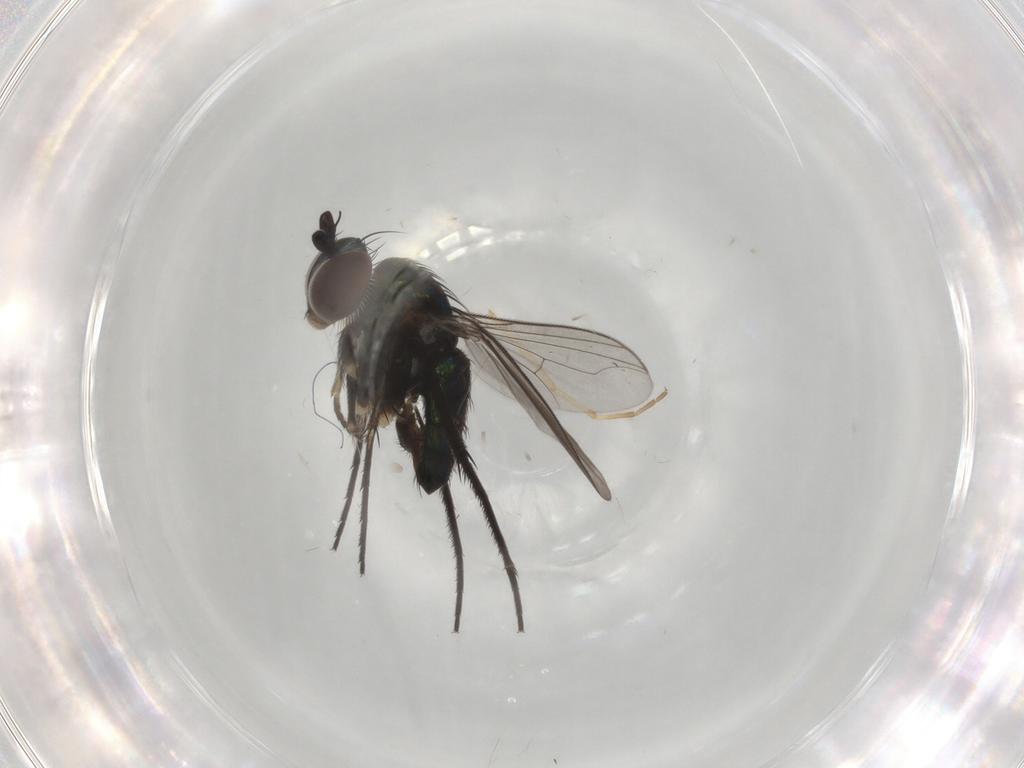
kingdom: Animalia
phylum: Arthropoda
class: Insecta
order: Diptera
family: Dolichopodidae
